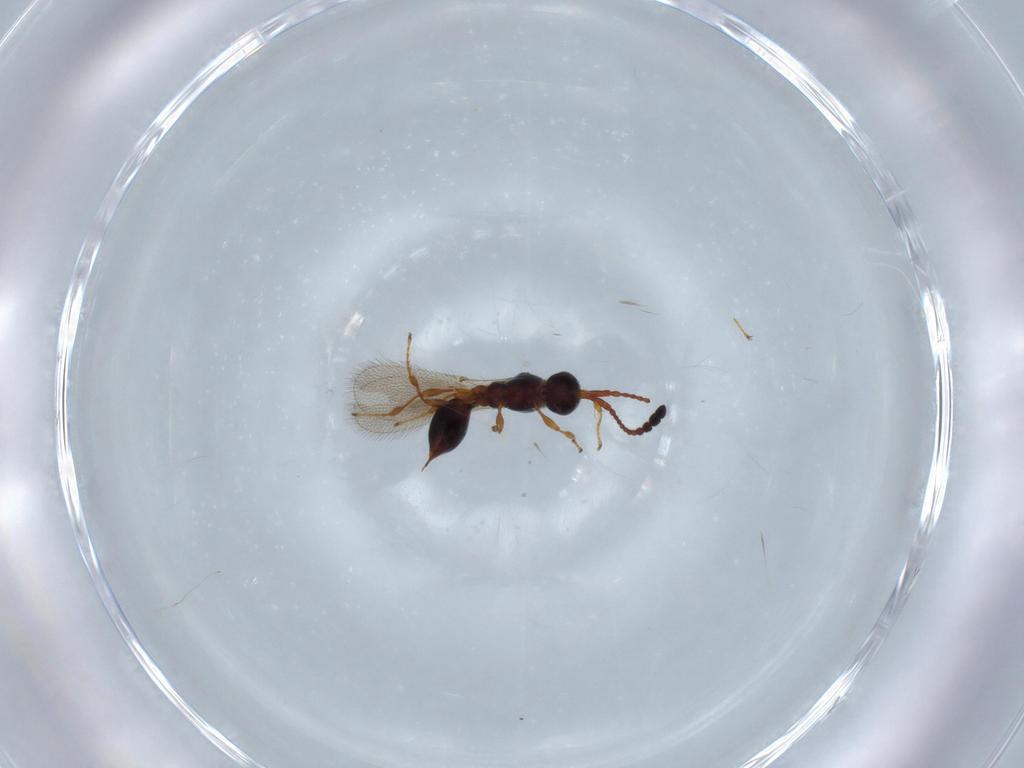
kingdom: Animalia
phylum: Arthropoda
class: Insecta
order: Hymenoptera
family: Diapriidae
